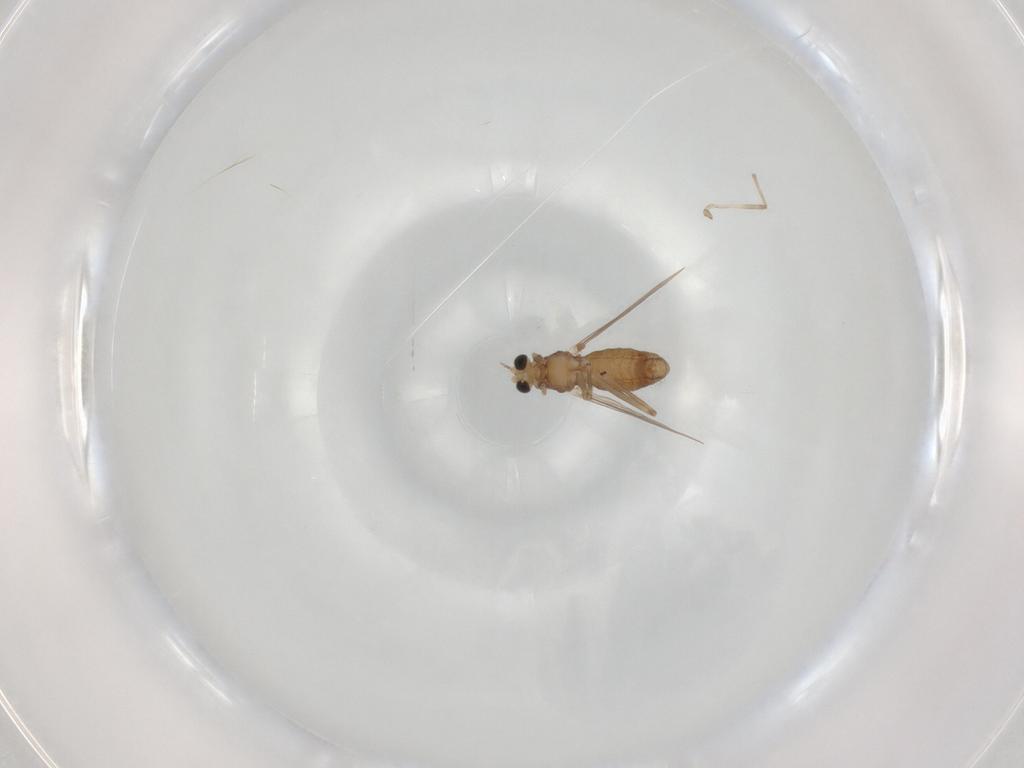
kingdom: Animalia
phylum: Arthropoda
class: Insecta
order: Diptera
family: Chironomidae
